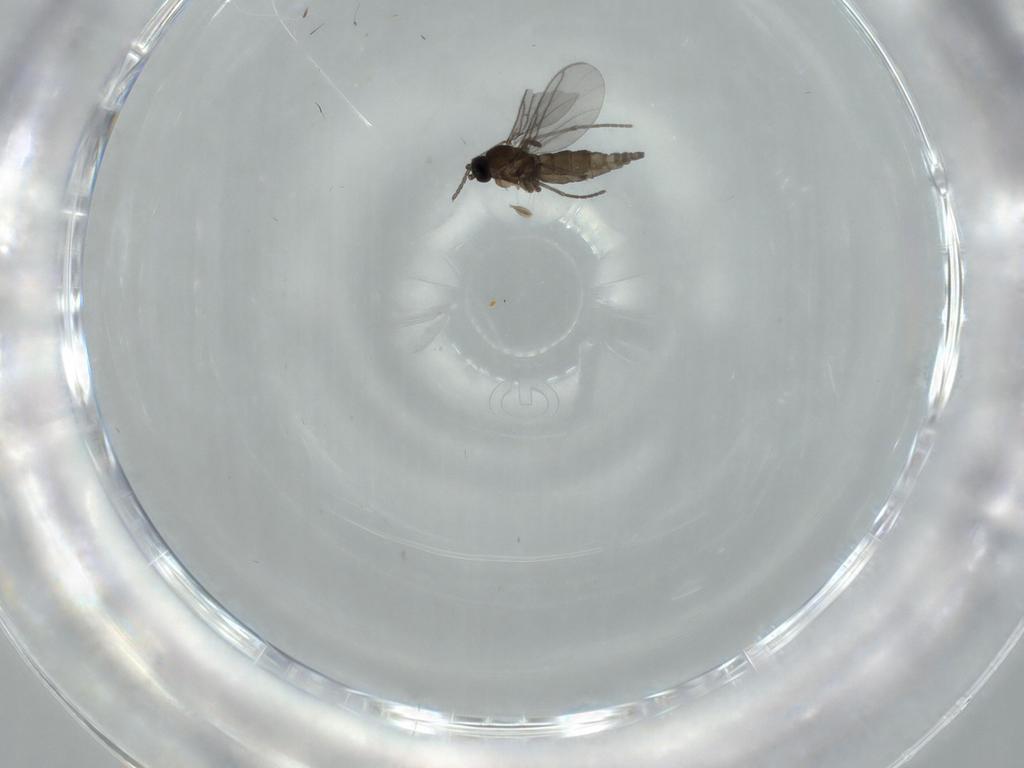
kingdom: Animalia
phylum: Arthropoda
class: Insecta
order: Diptera
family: Limoniidae
